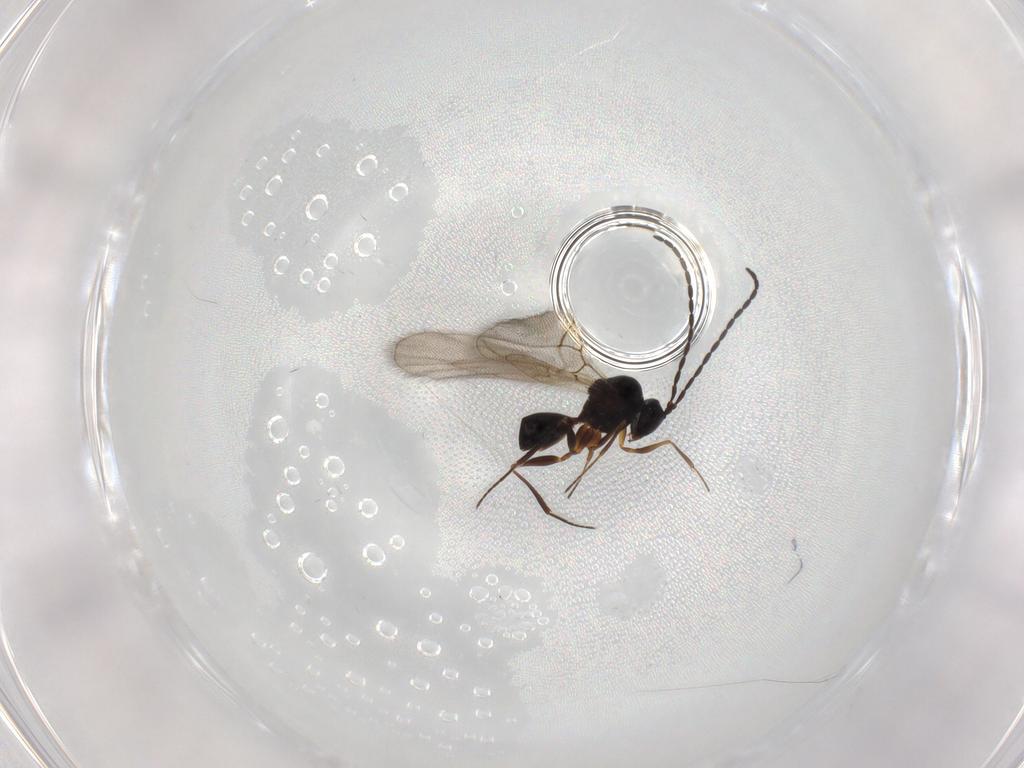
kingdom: Animalia
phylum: Arthropoda
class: Insecta
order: Hymenoptera
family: Figitidae
